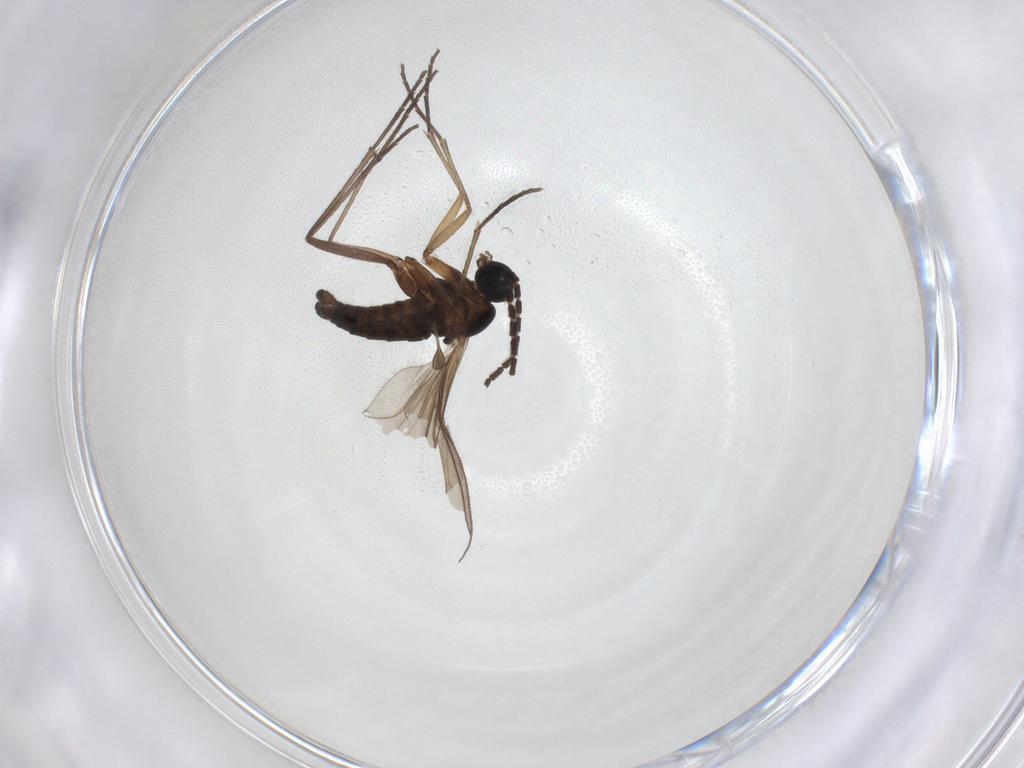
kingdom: Animalia
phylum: Arthropoda
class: Insecta
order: Diptera
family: Sciaridae
